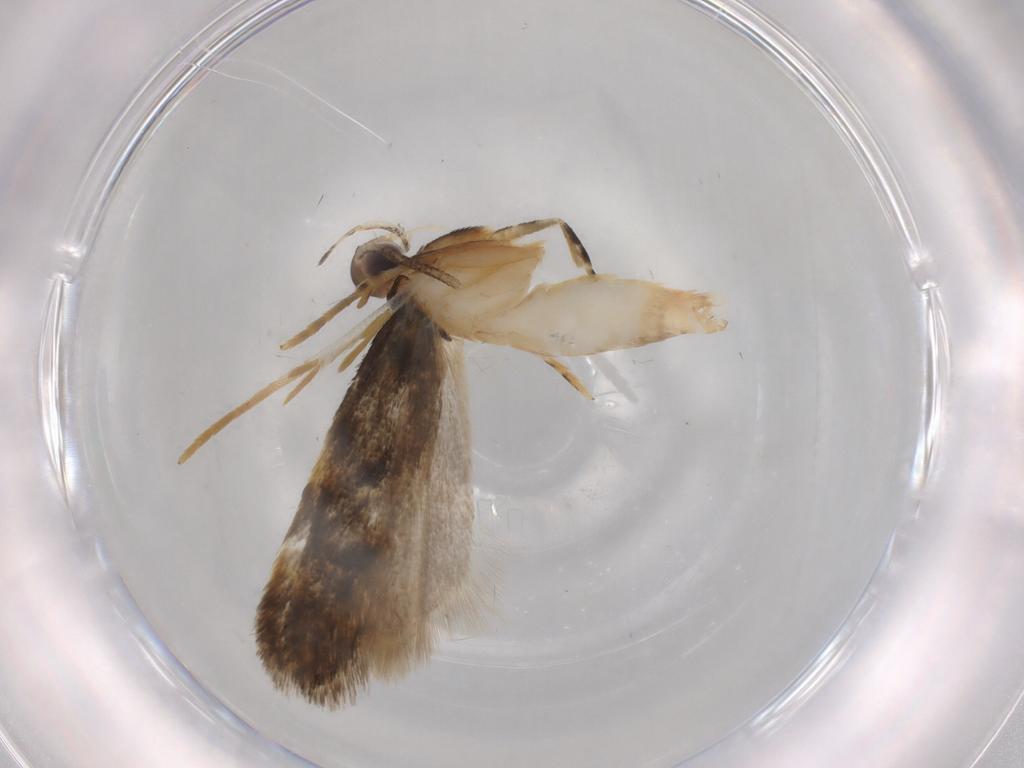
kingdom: Animalia
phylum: Arthropoda
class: Insecta
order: Lepidoptera
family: Autostichidae
